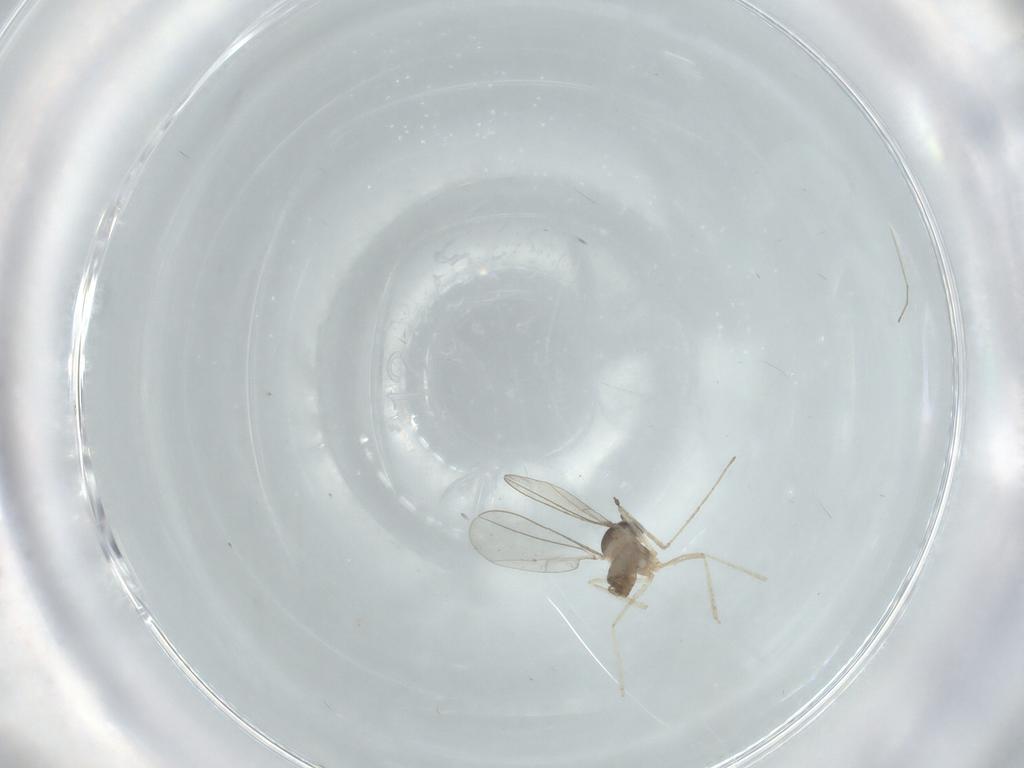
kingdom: Animalia
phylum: Arthropoda
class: Insecta
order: Diptera
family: Cecidomyiidae
